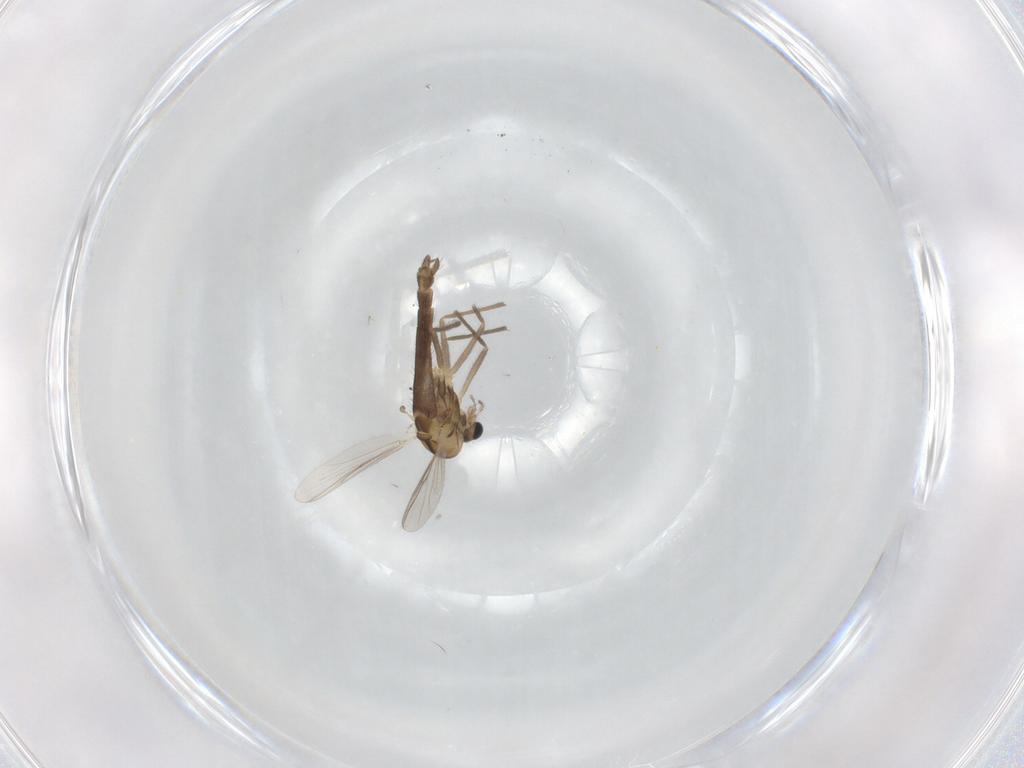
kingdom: Animalia
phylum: Arthropoda
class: Insecta
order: Diptera
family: Chironomidae
